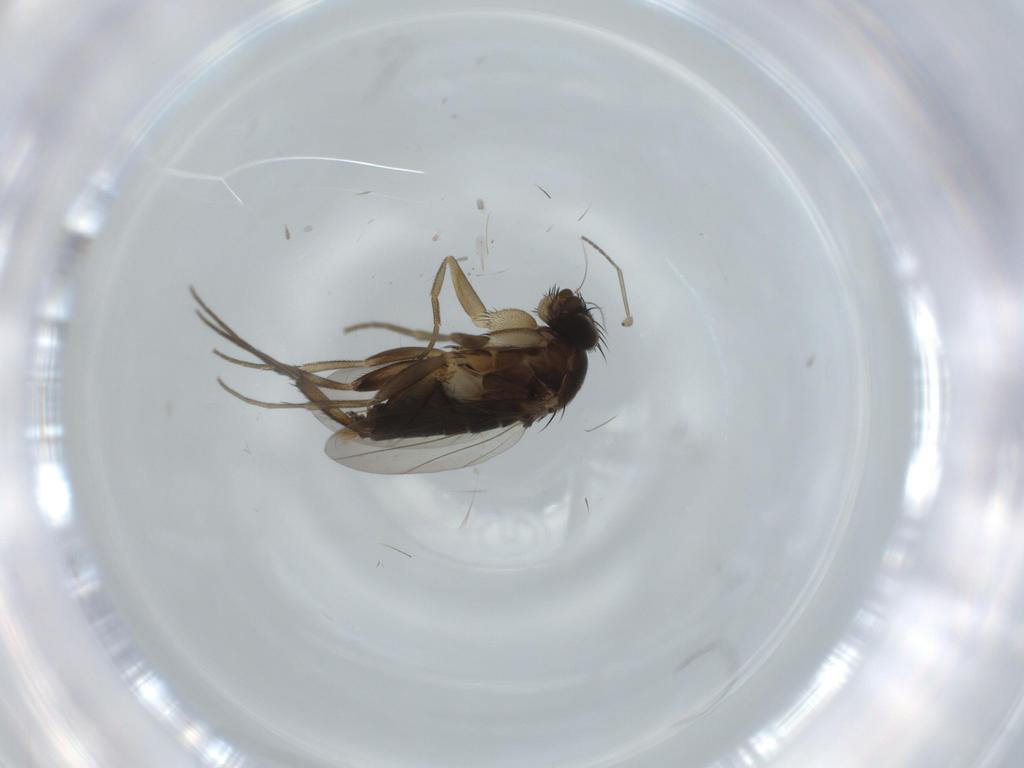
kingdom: Animalia
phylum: Arthropoda
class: Insecta
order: Diptera
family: Phoridae
